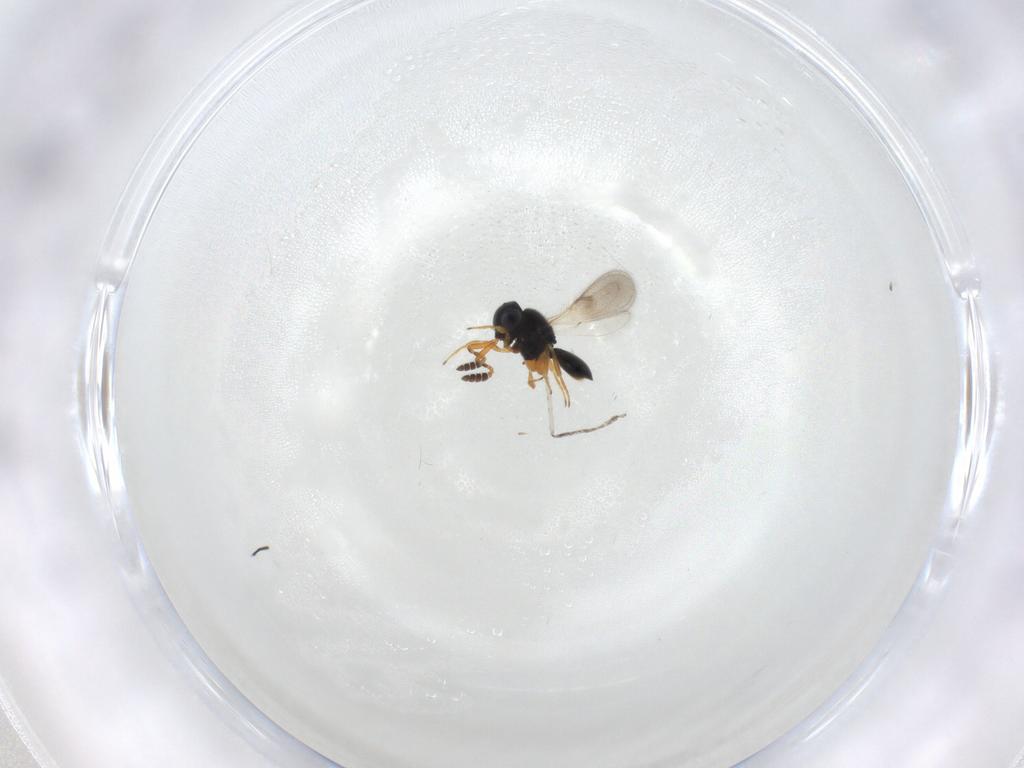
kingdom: Animalia
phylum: Arthropoda
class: Insecta
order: Hymenoptera
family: Scelionidae
